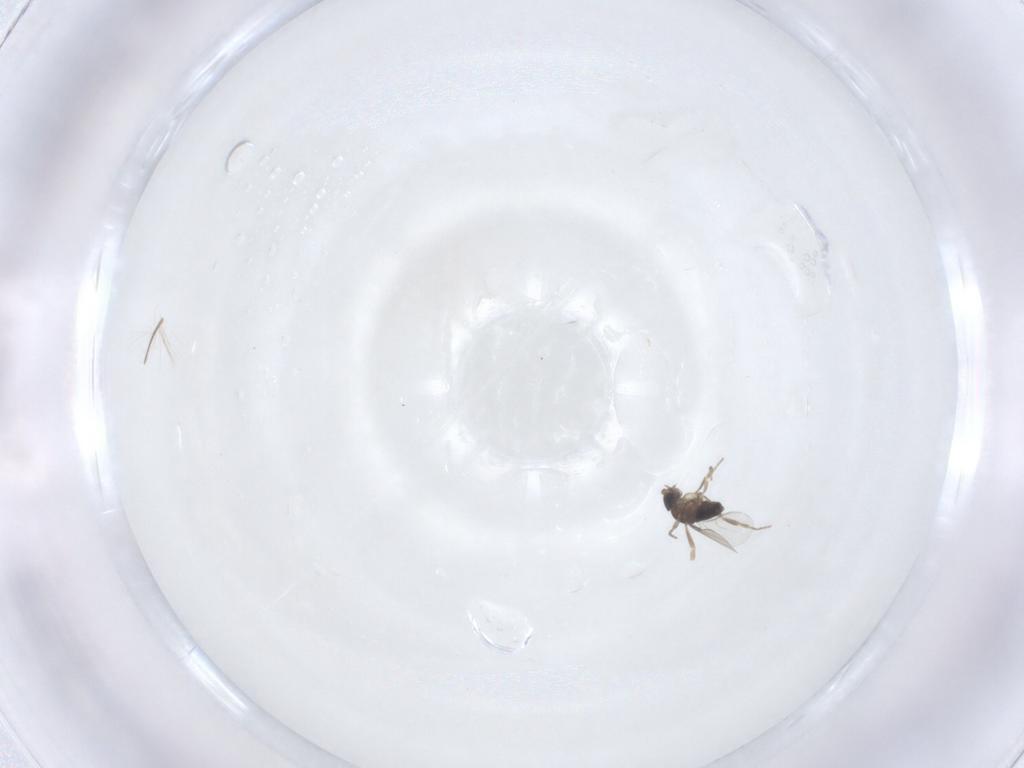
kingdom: Animalia
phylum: Arthropoda
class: Insecta
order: Diptera
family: Phoridae
